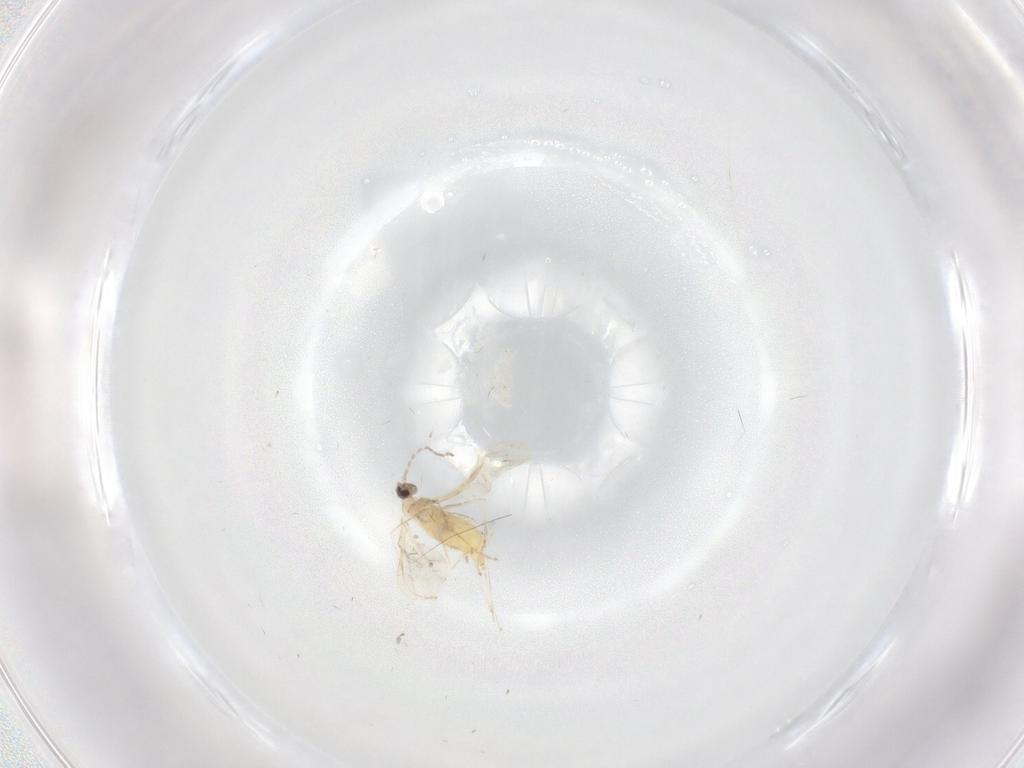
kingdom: Animalia
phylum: Arthropoda
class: Insecta
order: Diptera
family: Cecidomyiidae
